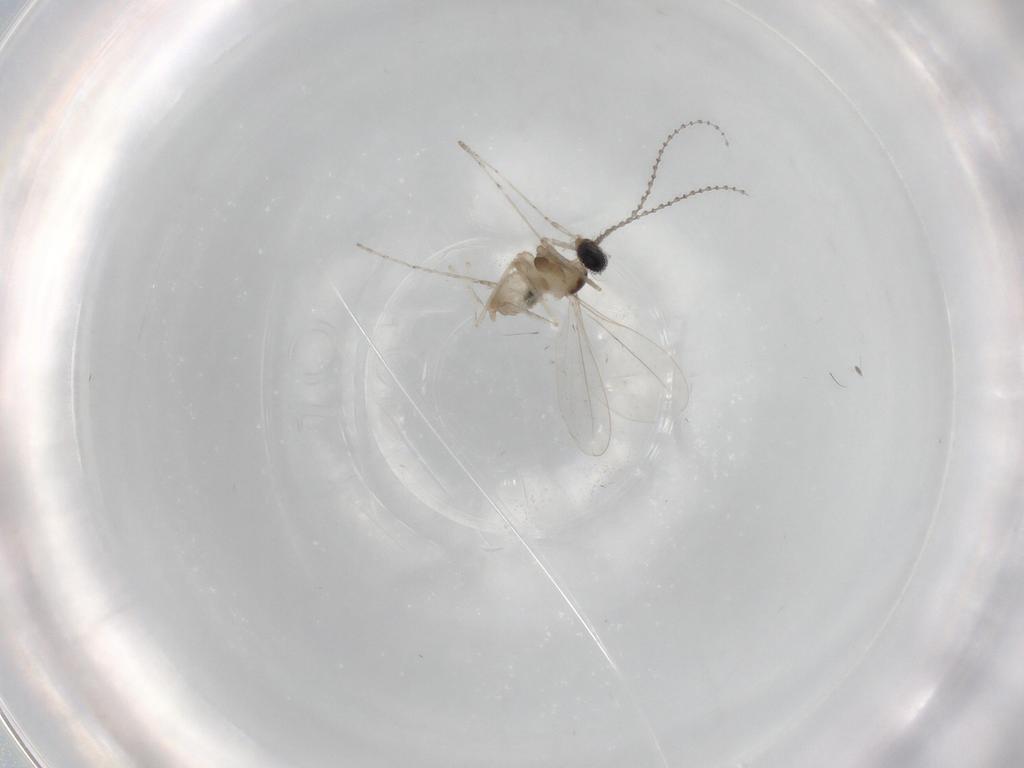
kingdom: Animalia
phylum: Arthropoda
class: Insecta
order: Diptera
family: Cecidomyiidae
